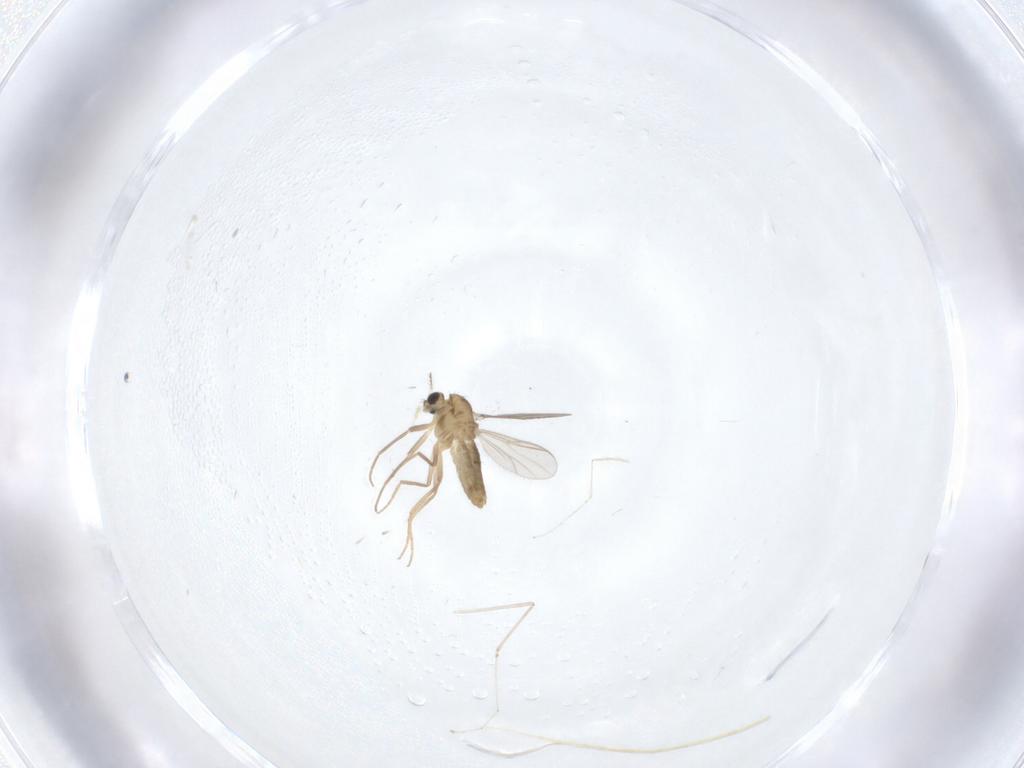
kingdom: Animalia
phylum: Arthropoda
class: Insecta
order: Diptera
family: Chironomidae
